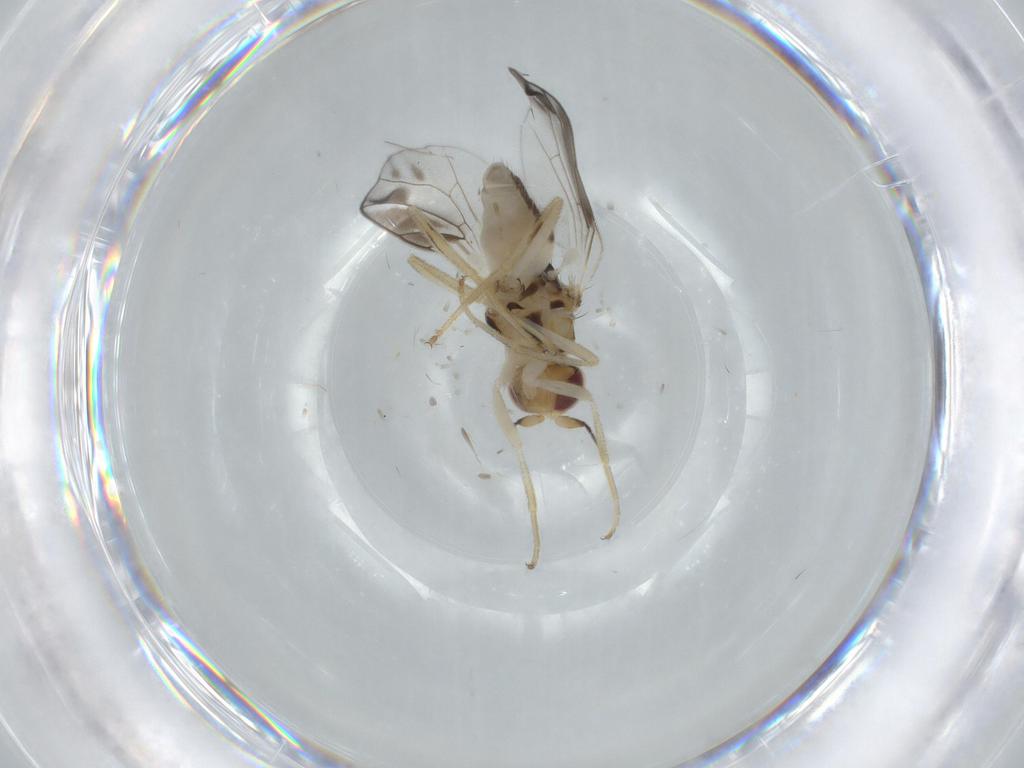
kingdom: Animalia
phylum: Arthropoda
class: Insecta
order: Diptera
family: Chloropidae
